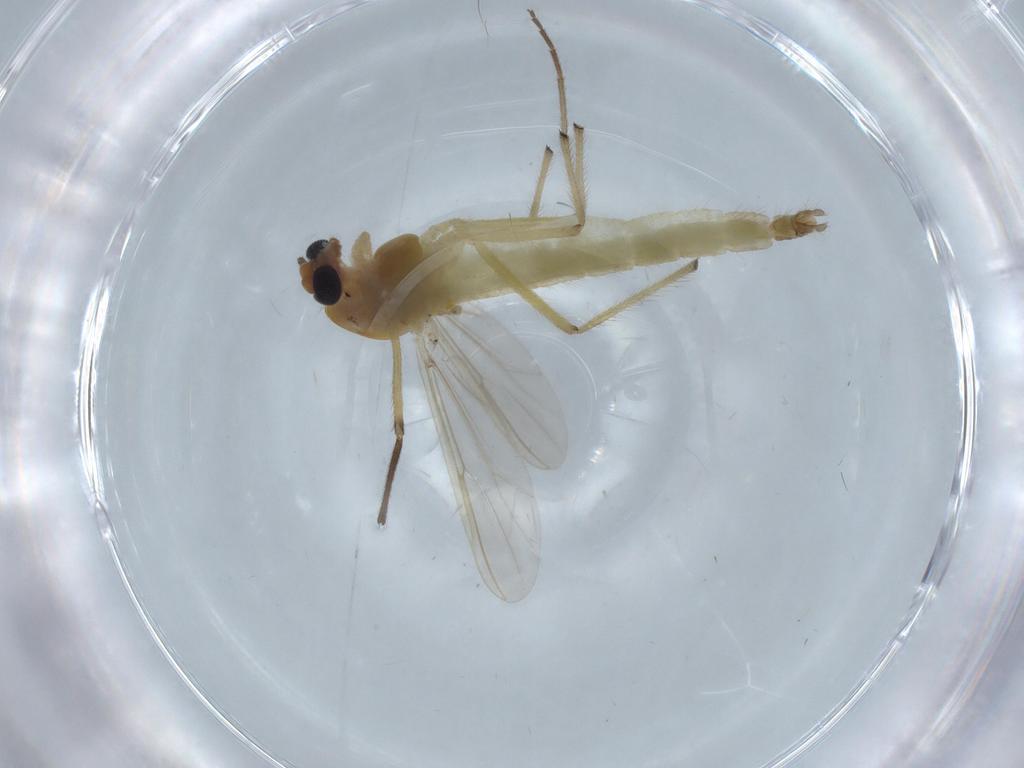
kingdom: Animalia
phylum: Arthropoda
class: Insecta
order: Diptera
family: Chironomidae
